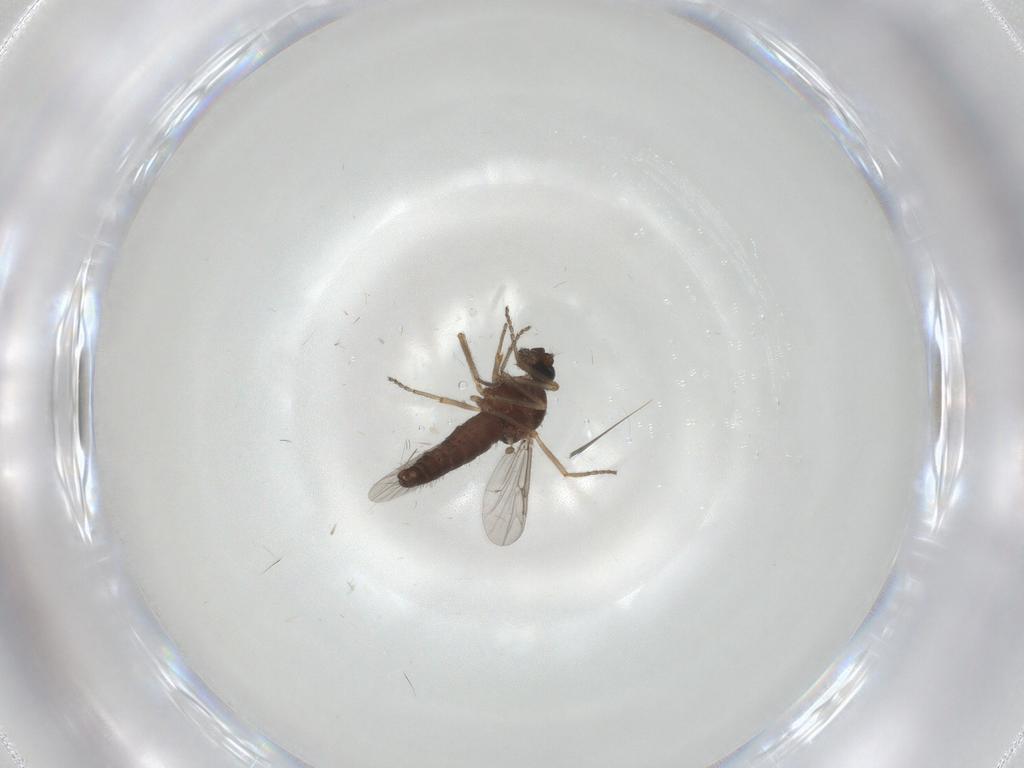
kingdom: Animalia
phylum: Arthropoda
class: Insecta
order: Diptera
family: Ceratopogonidae
